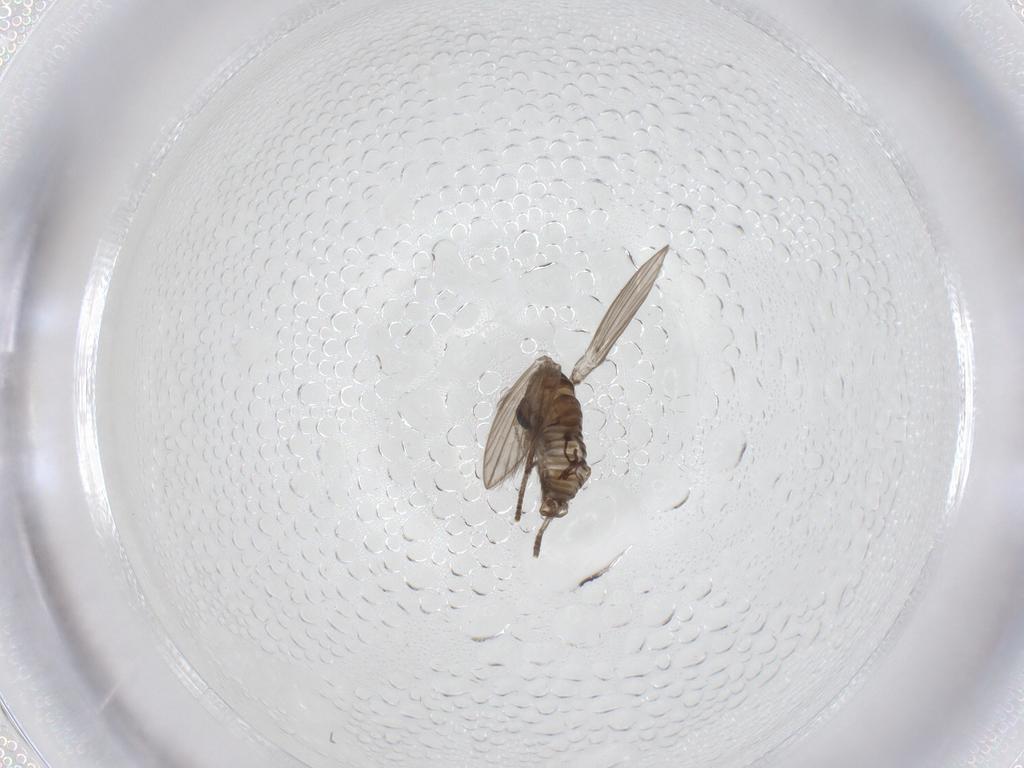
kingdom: Animalia
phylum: Arthropoda
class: Insecta
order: Diptera
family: Psychodidae
